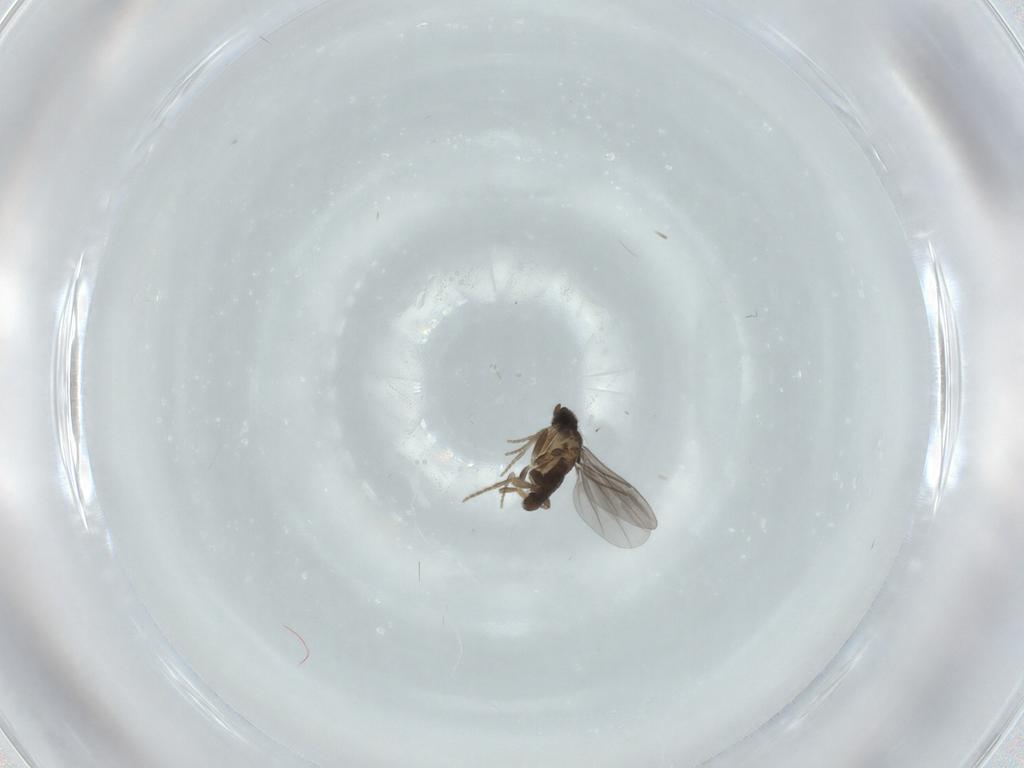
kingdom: Animalia
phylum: Arthropoda
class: Insecta
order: Diptera
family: Cecidomyiidae
